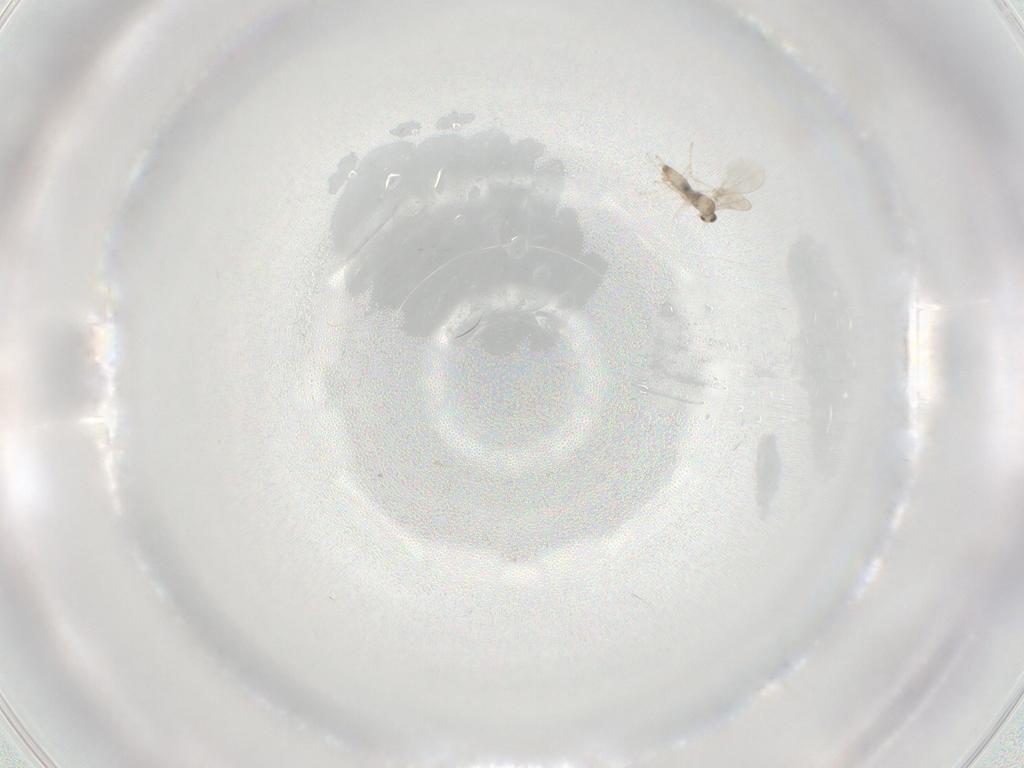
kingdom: Animalia
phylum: Arthropoda
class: Insecta
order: Diptera
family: Cecidomyiidae
